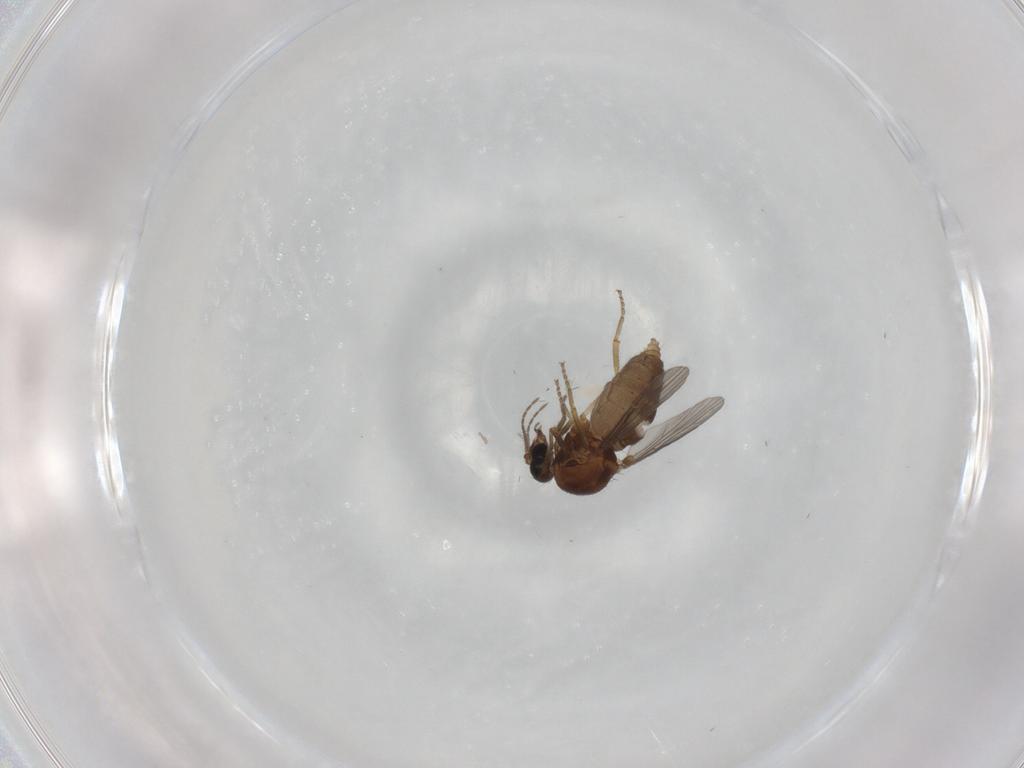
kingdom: Animalia
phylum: Arthropoda
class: Insecta
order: Diptera
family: Ceratopogonidae
